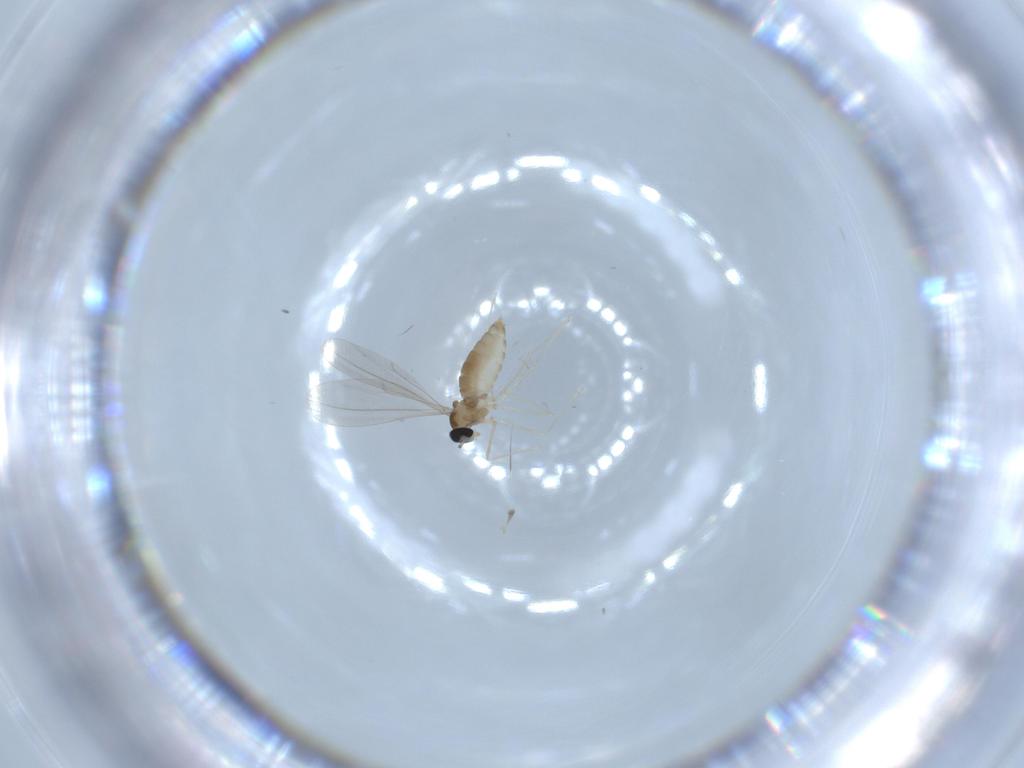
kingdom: Animalia
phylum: Arthropoda
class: Insecta
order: Diptera
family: Cecidomyiidae
